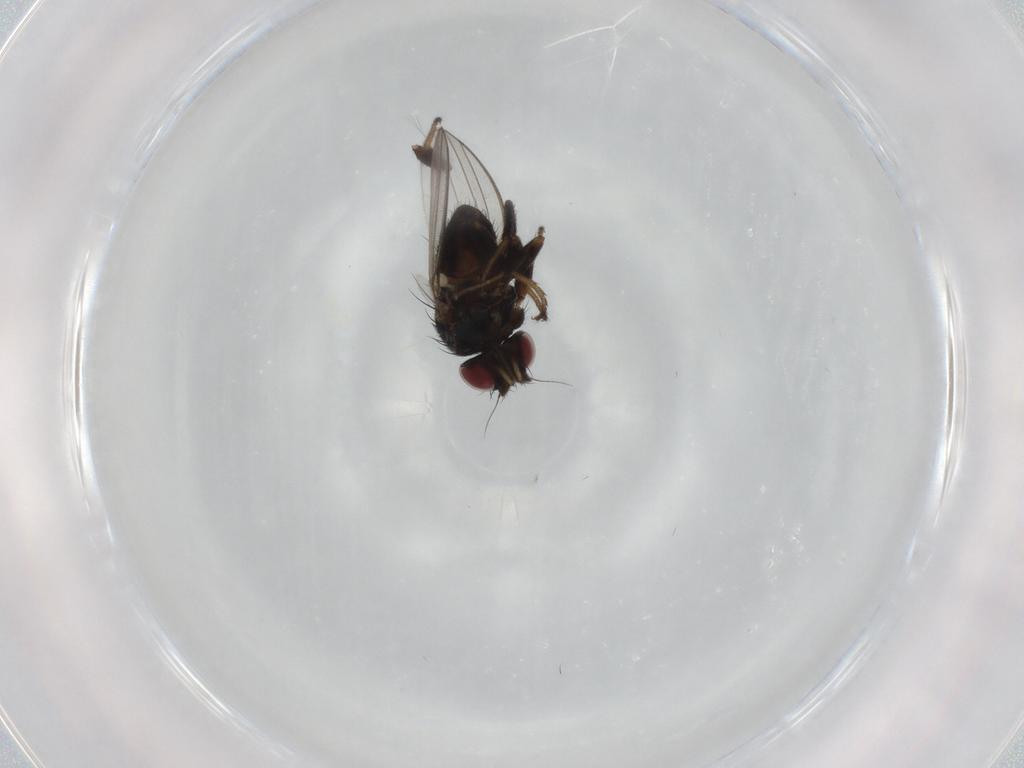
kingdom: Animalia
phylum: Arthropoda
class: Insecta
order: Diptera
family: Milichiidae
